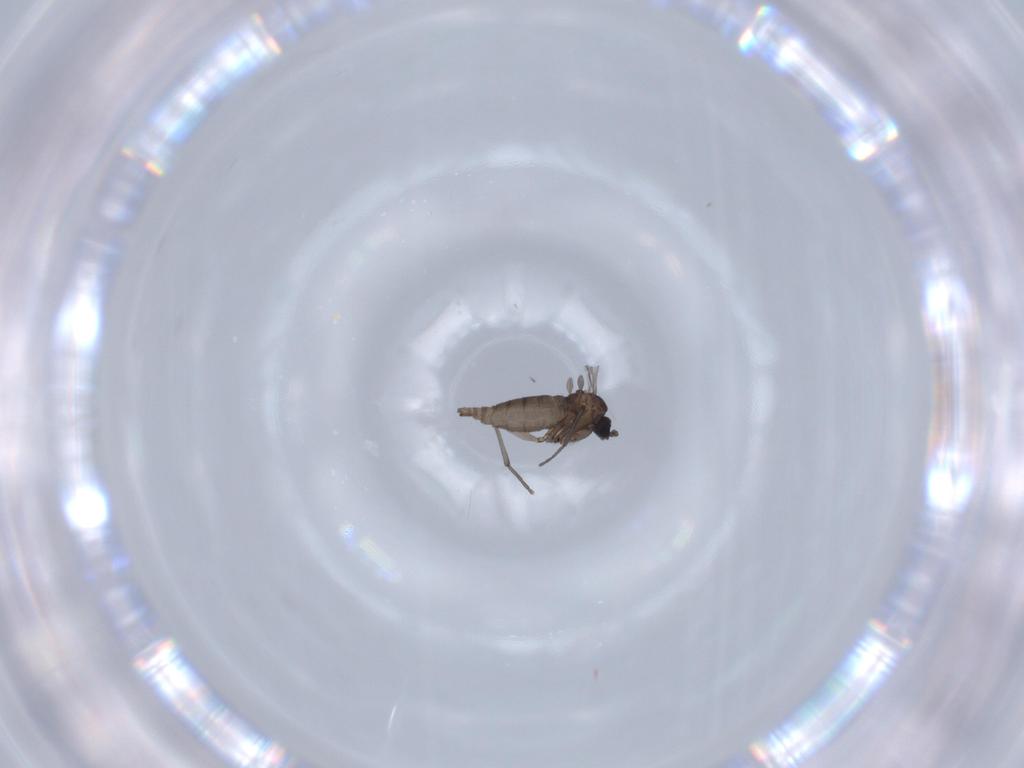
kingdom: Animalia
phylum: Arthropoda
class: Insecta
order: Diptera
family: Sciaridae
